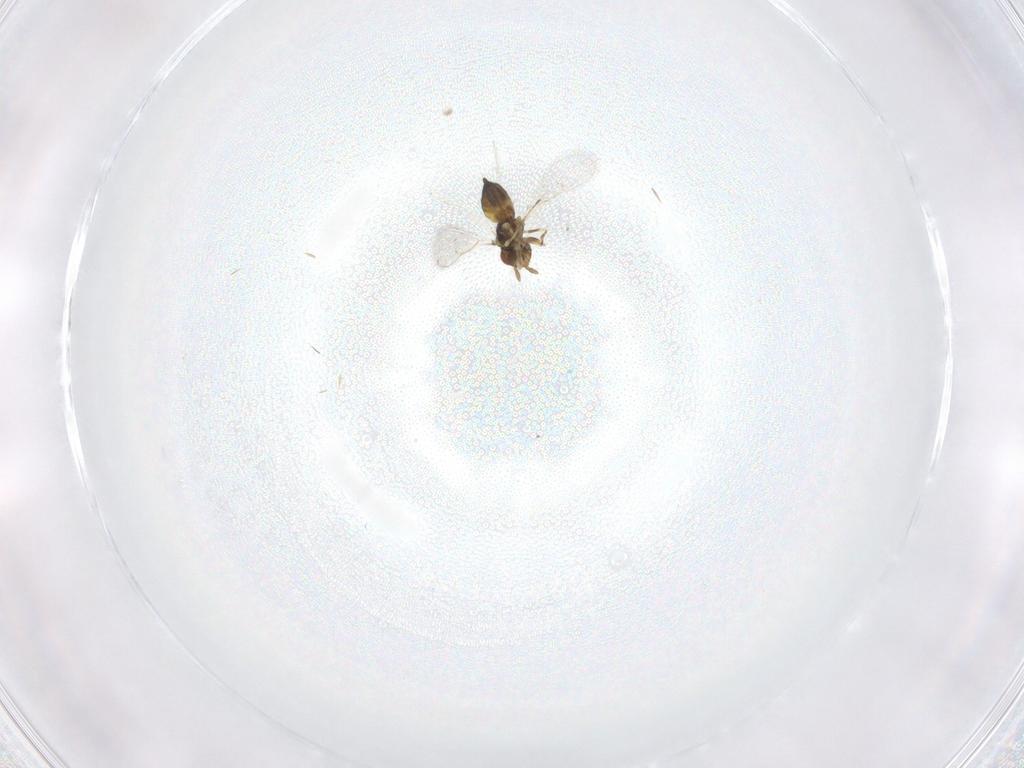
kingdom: Animalia
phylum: Arthropoda
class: Insecta
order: Hymenoptera
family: Eulophidae
